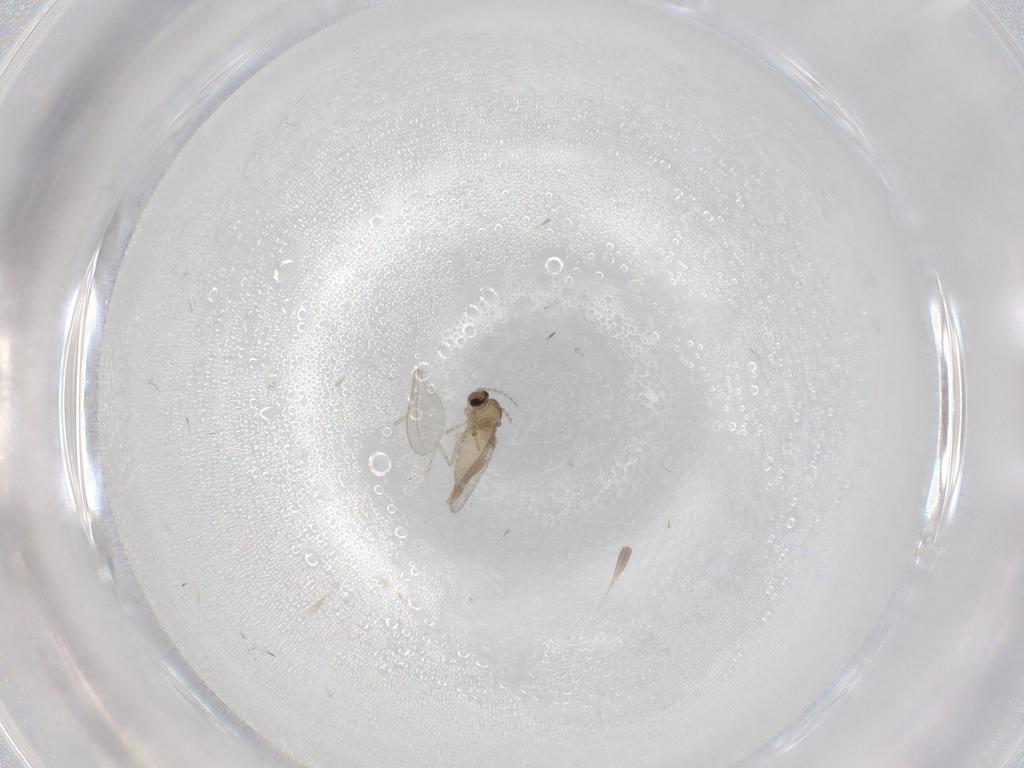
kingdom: Animalia
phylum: Arthropoda
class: Insecta
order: Diptera
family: Cecidomyiidae
